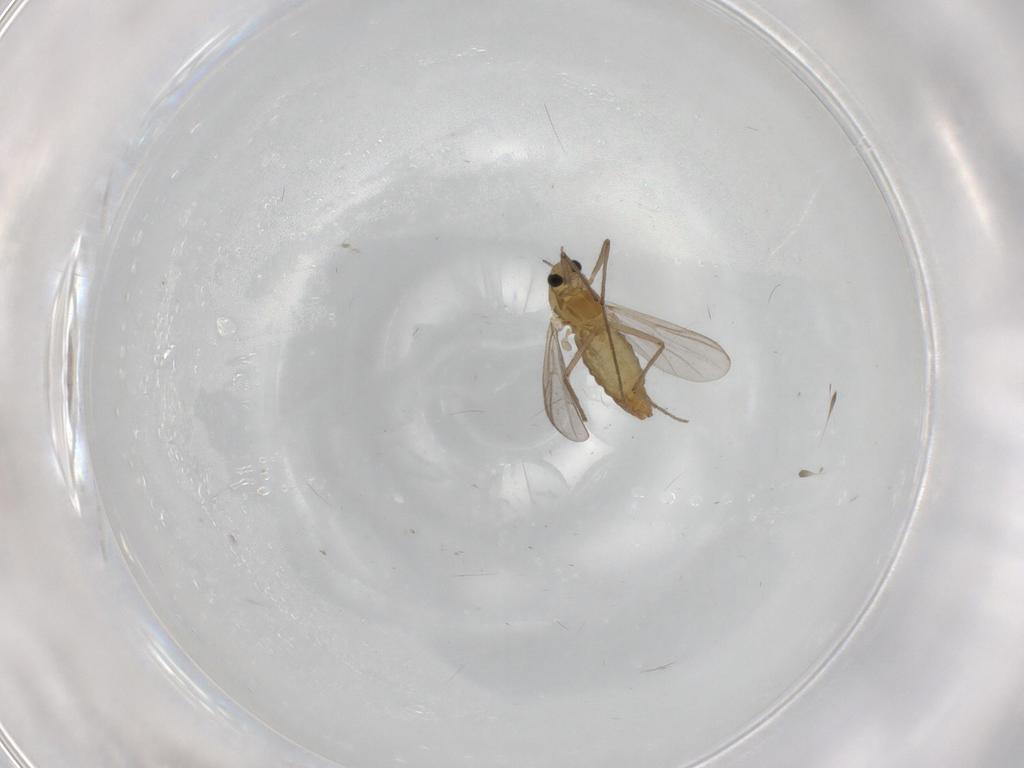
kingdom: Animalia
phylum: Arthropoda
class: Insecta
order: Diptera
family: Chironomidae
